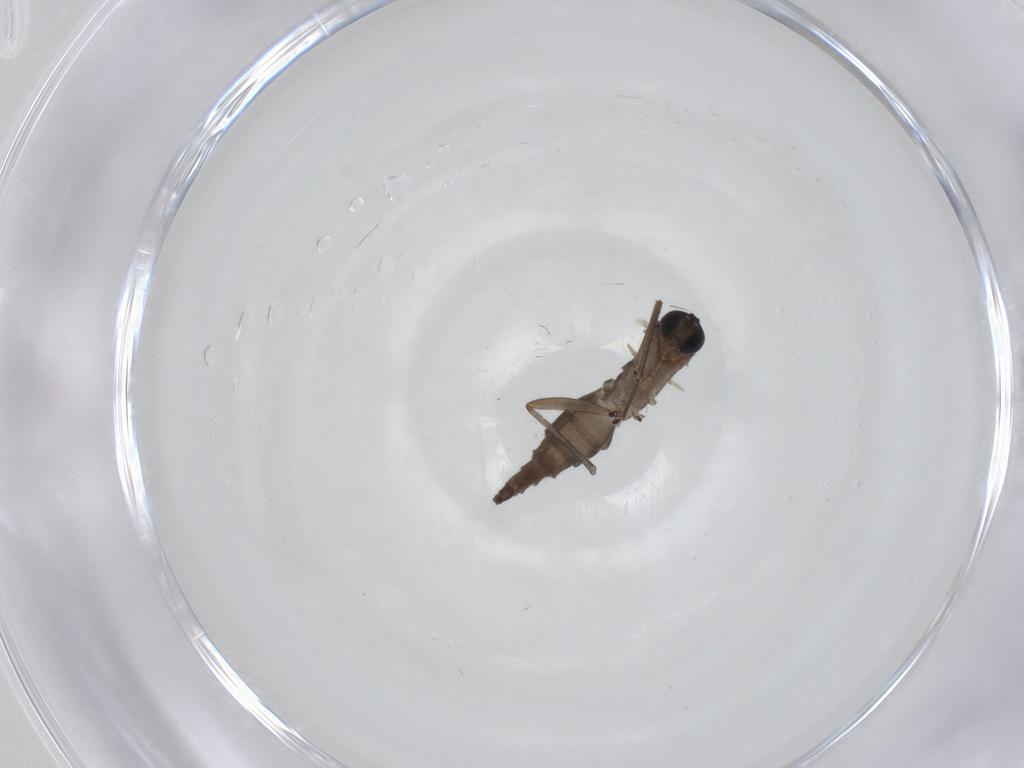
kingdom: Animalia
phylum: Arthropoda
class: Insecta
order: Diptera
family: Sciaridae
